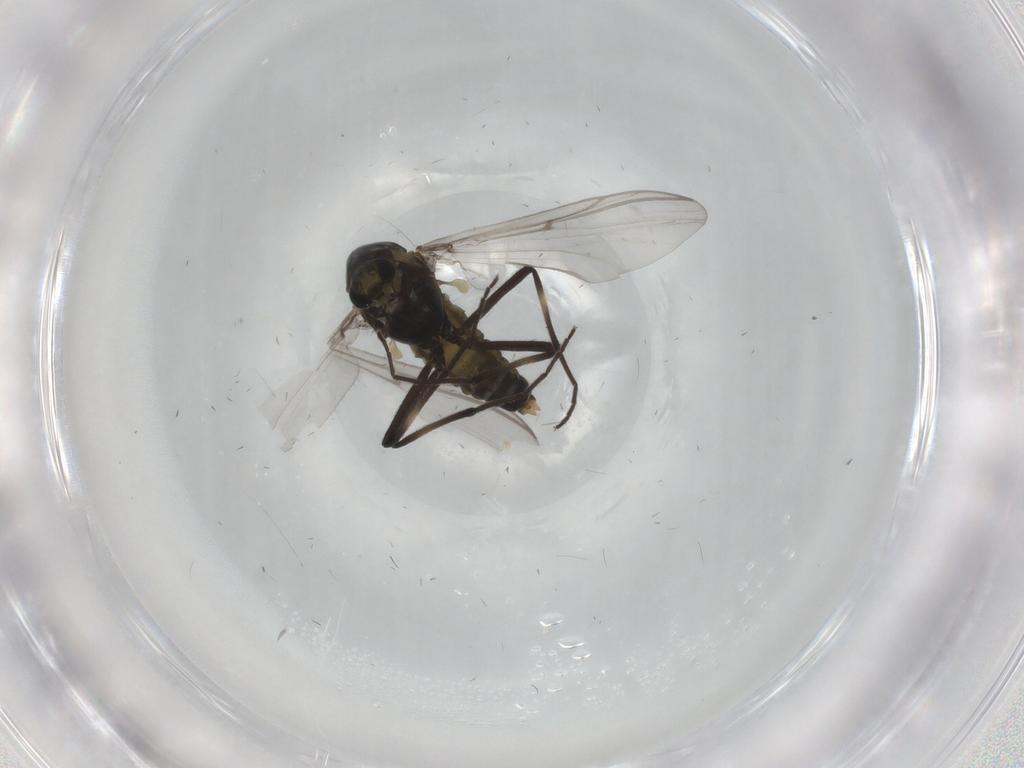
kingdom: Animalia
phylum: Arthropoda
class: Insecta
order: Diptera
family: Chironomidae
